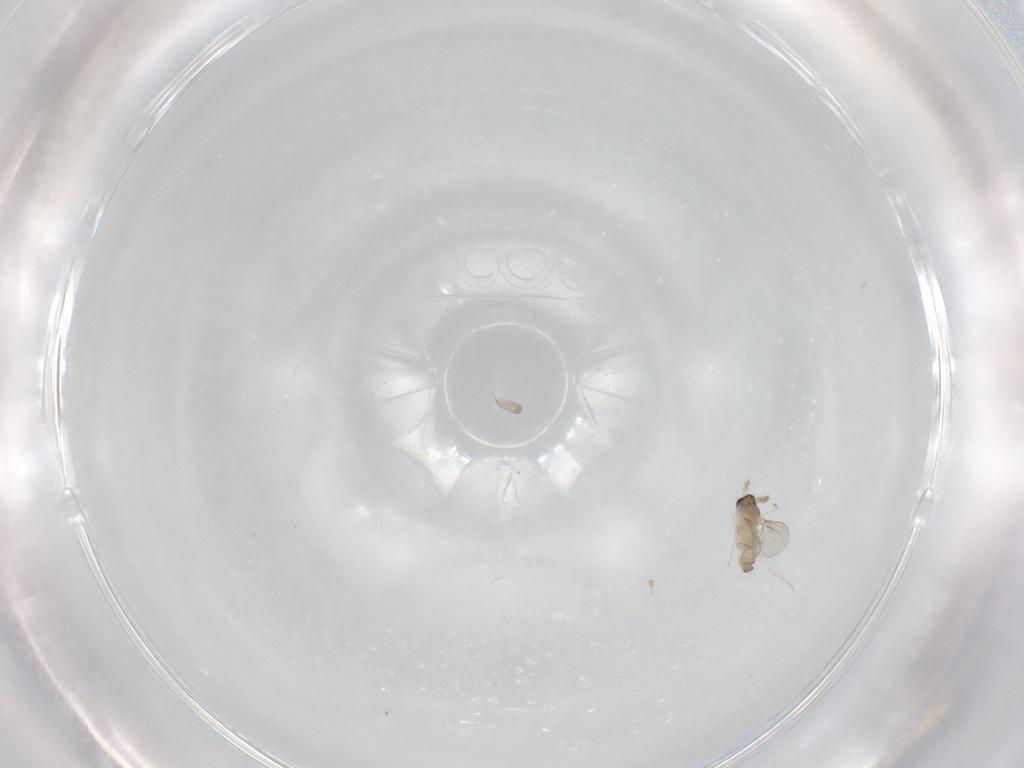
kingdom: Animalia
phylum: Arthropoda
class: Insecta
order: Diptera
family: Cecidomyiidae
